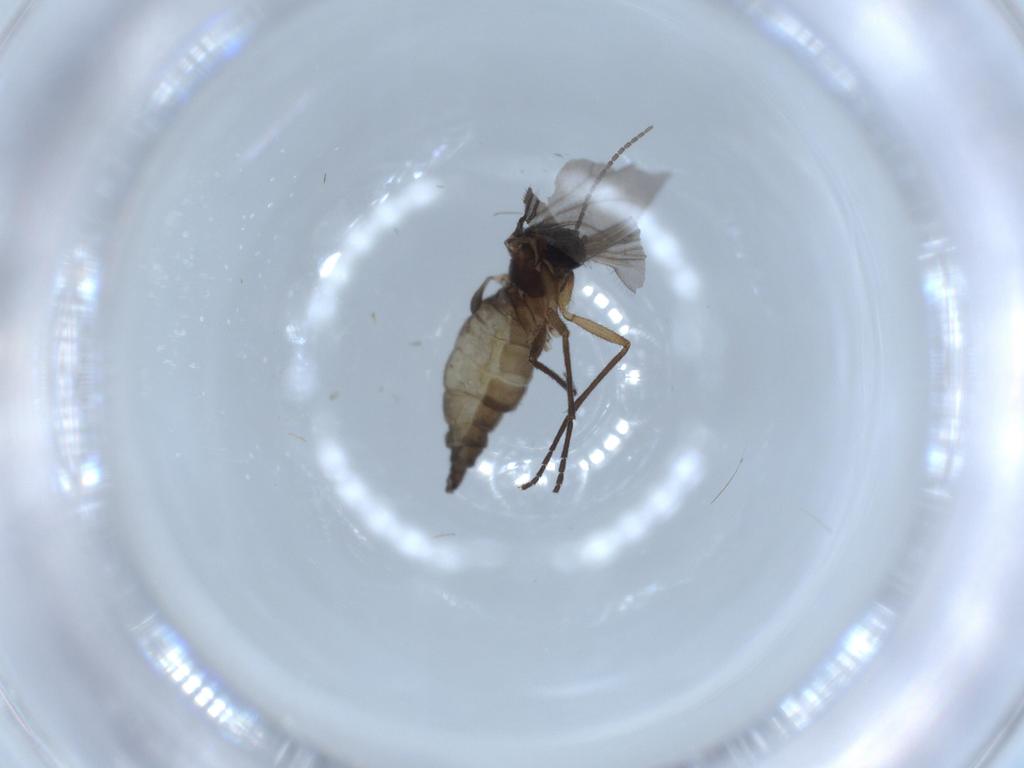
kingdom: Animalia
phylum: Arthropoda
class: Insecta
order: Diptera
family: Sciaridae
